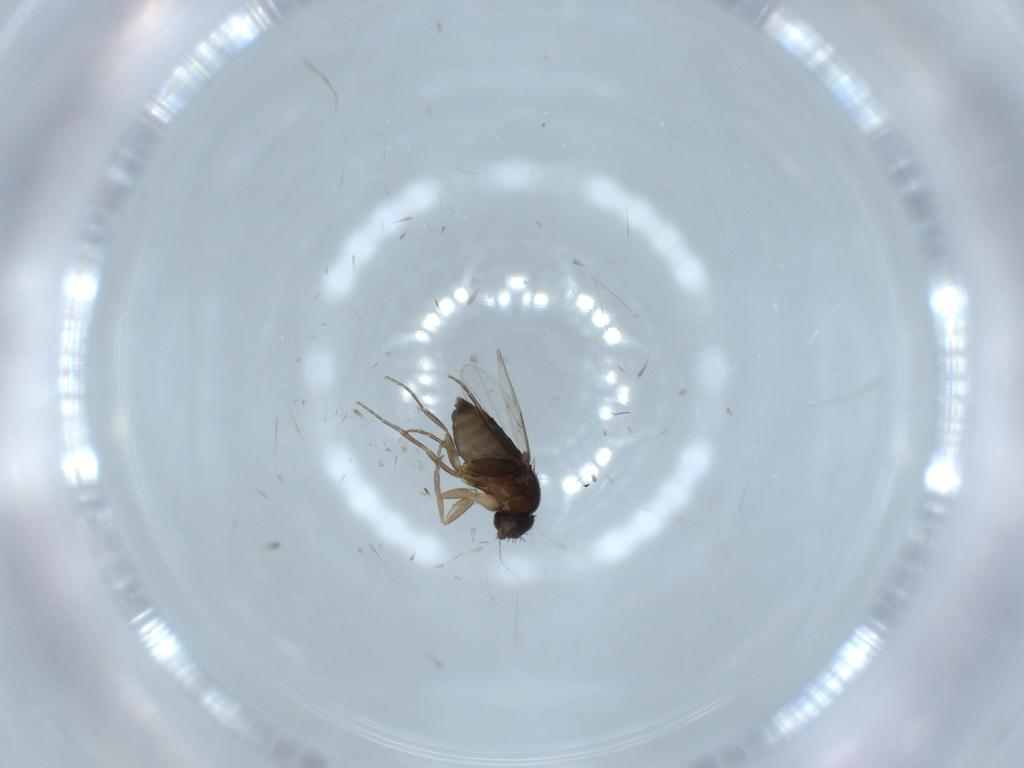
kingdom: Animalia
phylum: Arthropoda
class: Insecta
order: Diptera
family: Phoridae
